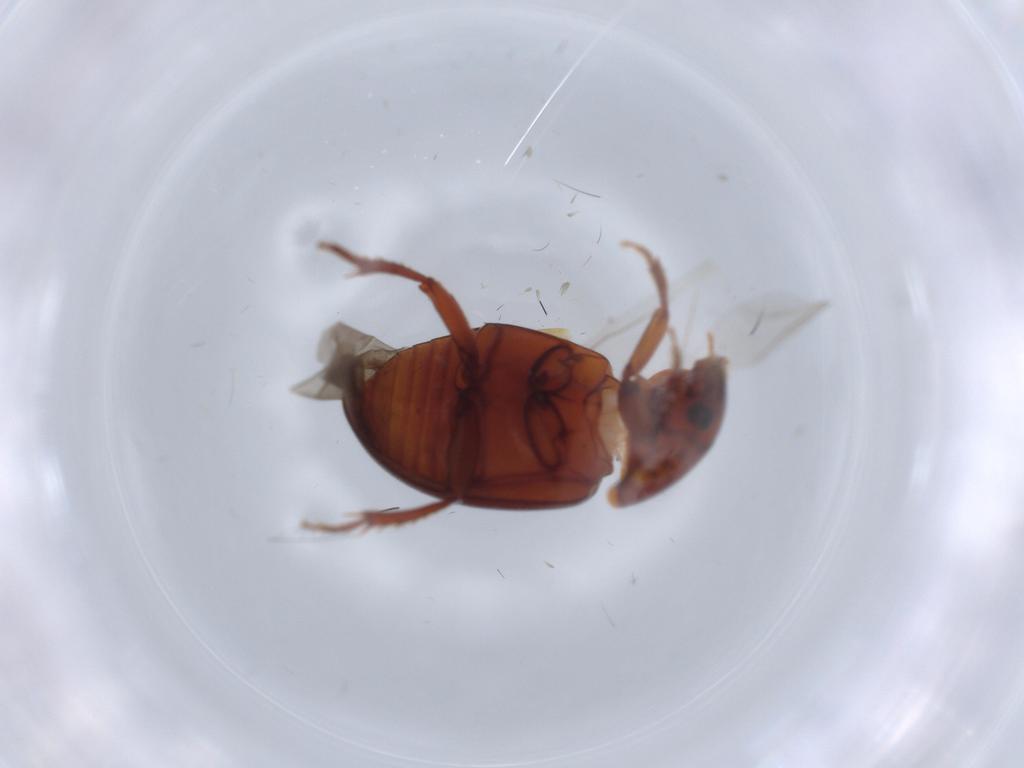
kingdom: Animalia
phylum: Arthropoda
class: Insecta
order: Coleoptera
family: Leiodidae
